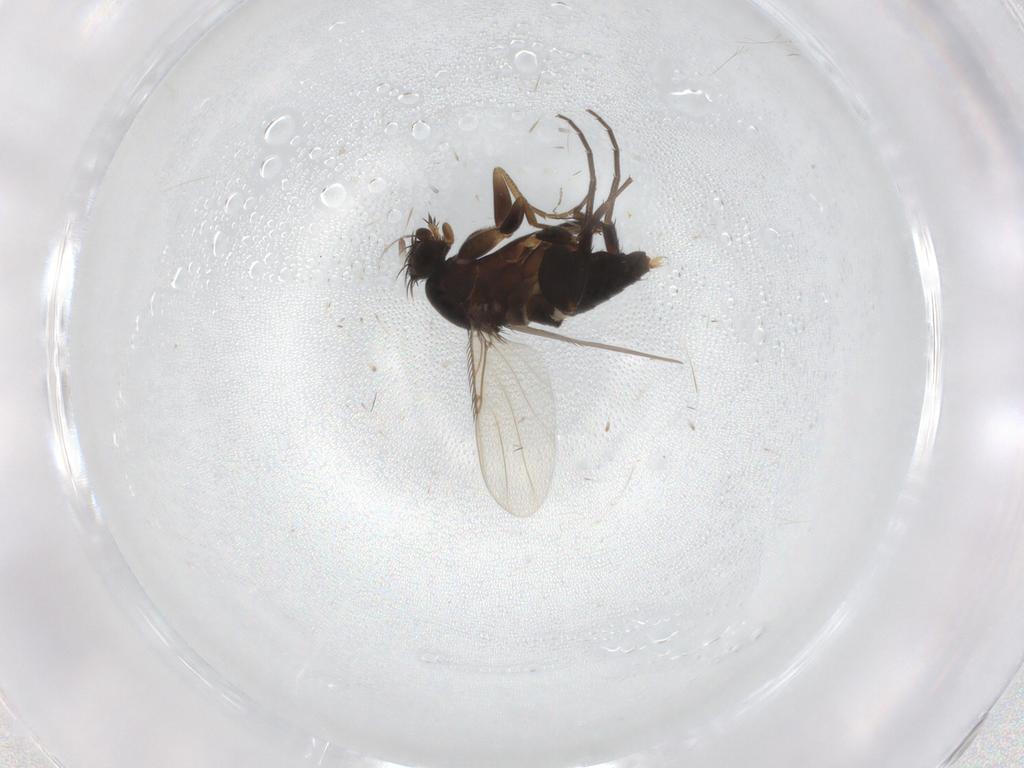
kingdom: Animalia
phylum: Arthropoda
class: Insecta
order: Diptera
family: Phoridae
